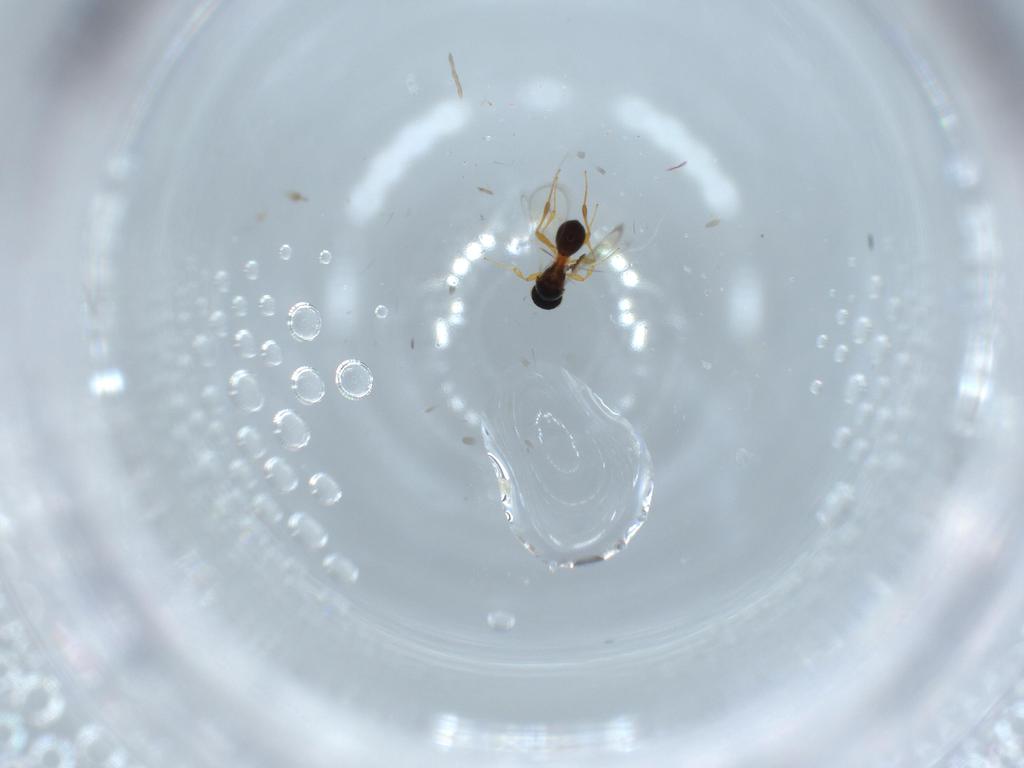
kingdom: Animalia
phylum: Arthropoda
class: Insecta
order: Hymenoptera
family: Platygastridae
